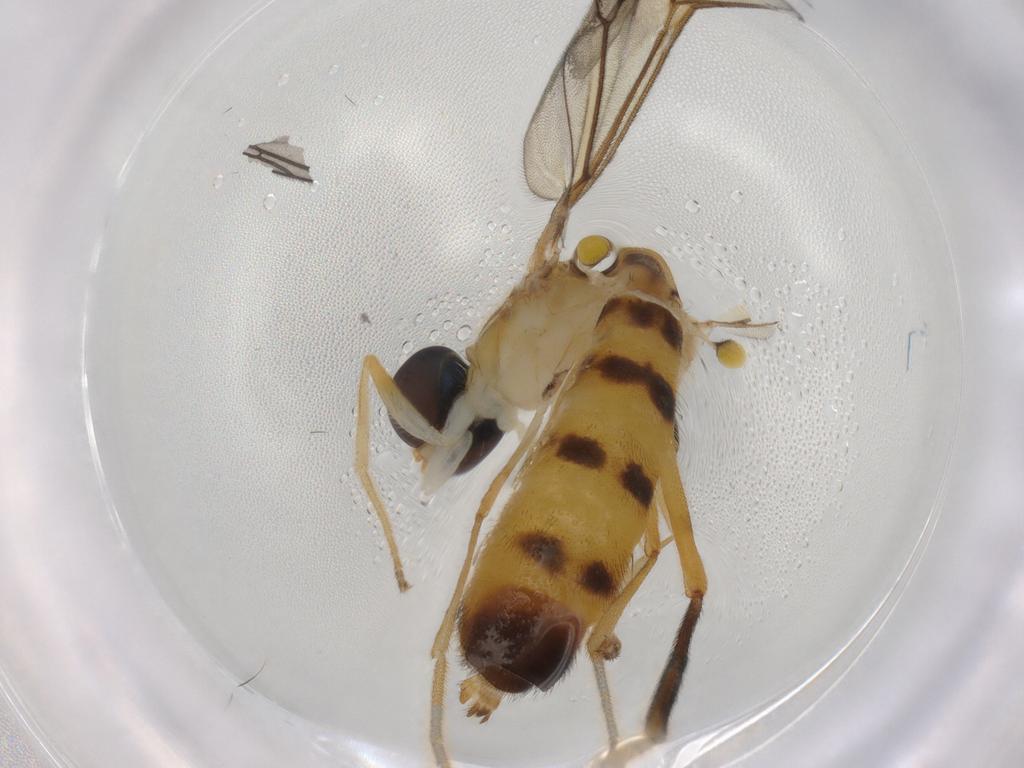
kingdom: Animalia
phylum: Arthropoda
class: Insecta
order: Diptera
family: Cecidomyiidae
